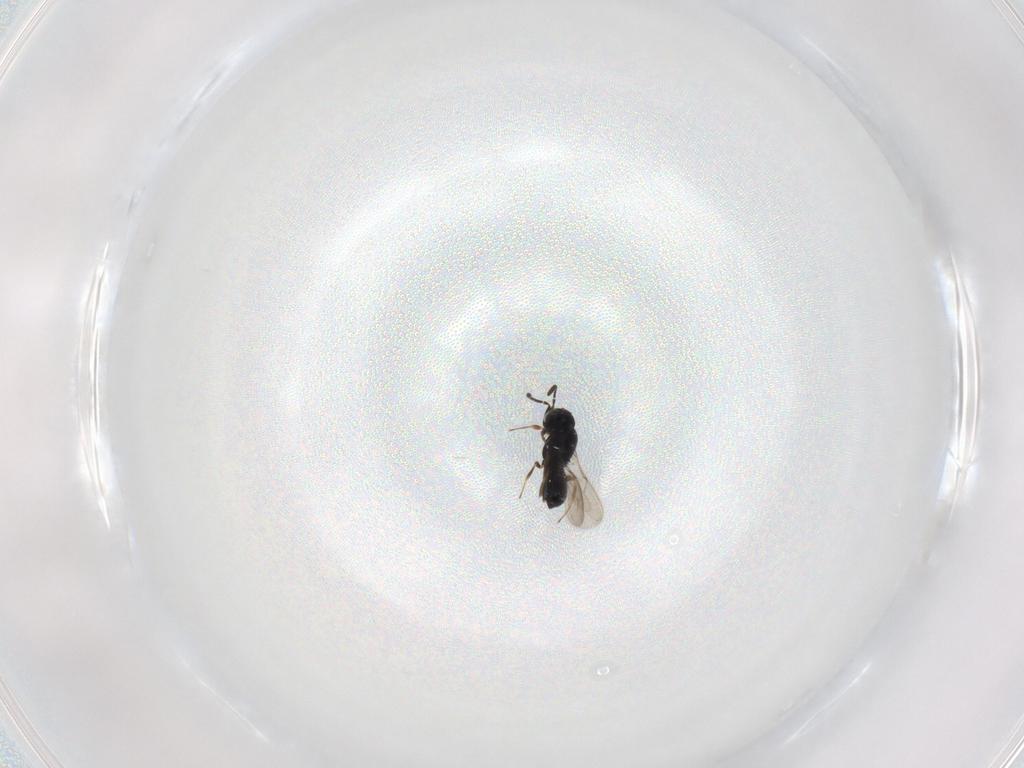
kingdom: Animalia
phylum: Arthropoda
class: Insecta
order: Hymenoptera
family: Scelionidae
